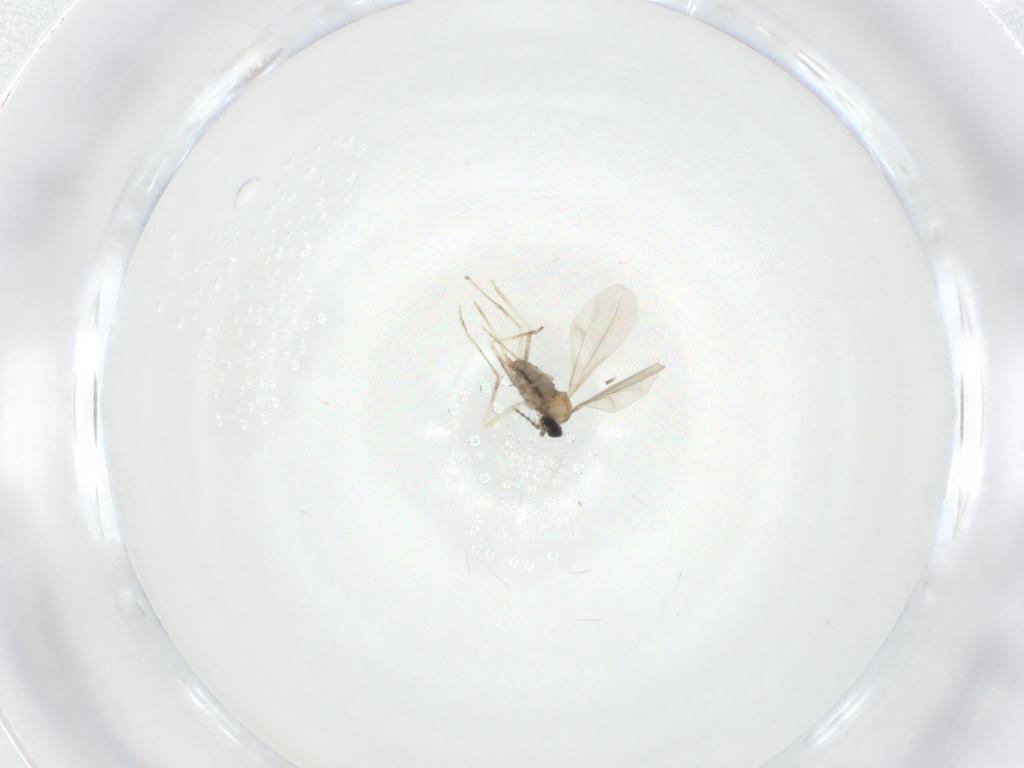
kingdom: Animalia
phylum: Arthropoda
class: Insecta
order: Diptera
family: Cecidomyiidae
